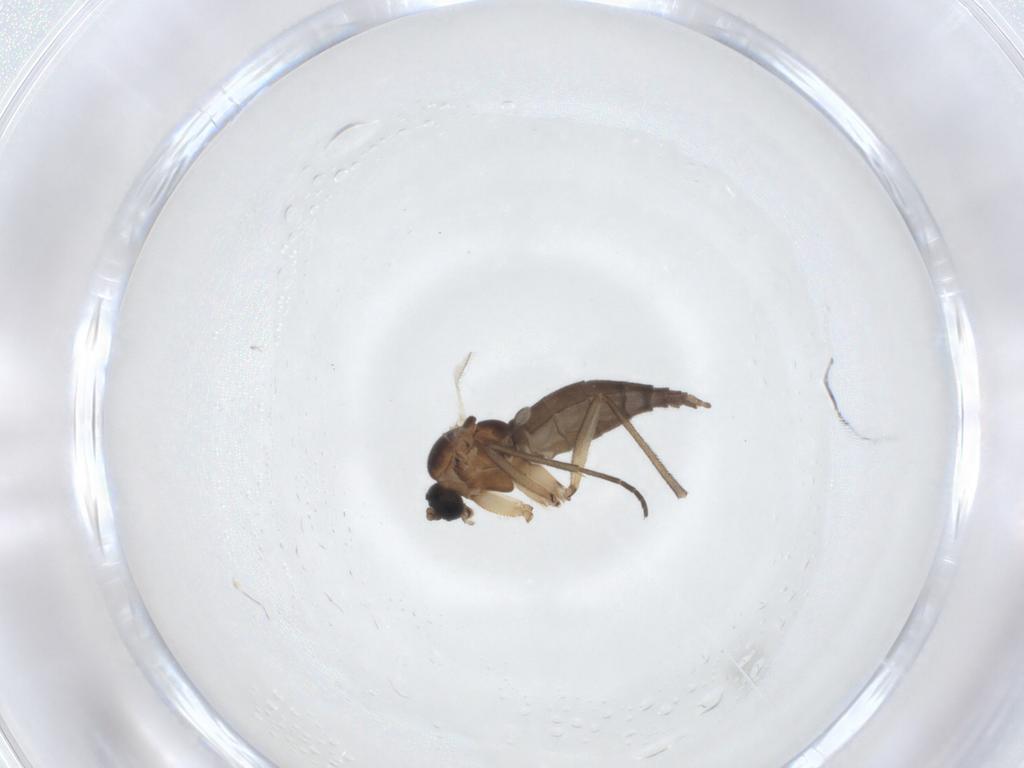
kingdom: Animalia
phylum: Arthropoda
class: Insecta
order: Diptera
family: Sciaridae
